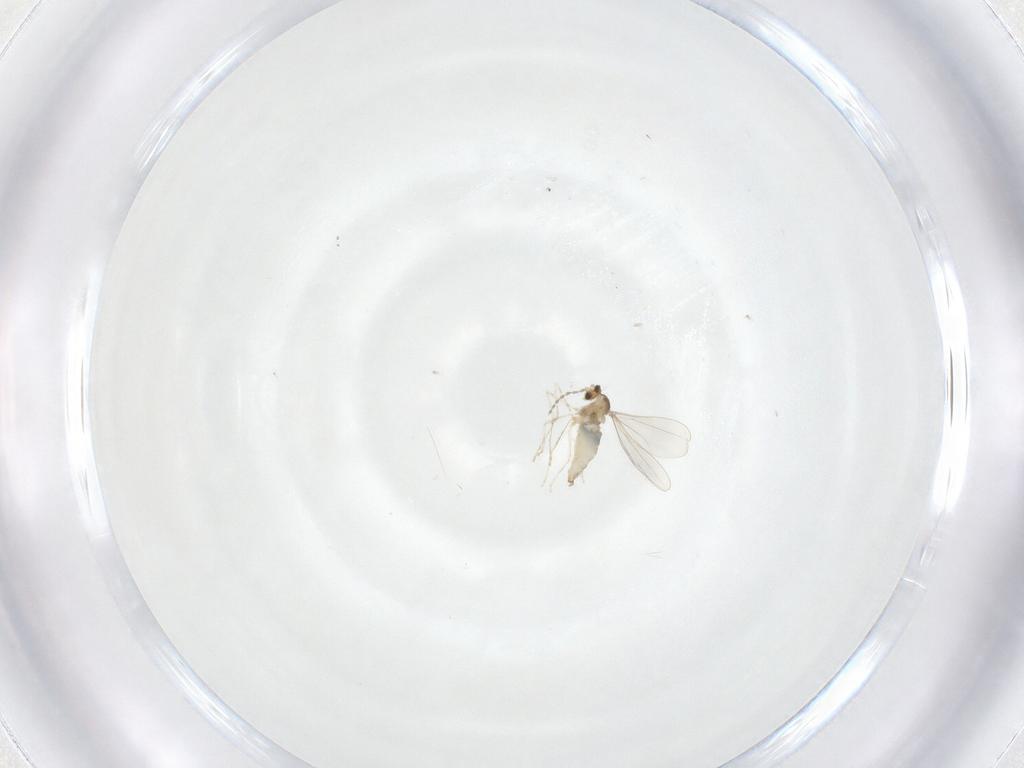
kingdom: Animalia
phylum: Arthropoda
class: Insecta
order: Diptera
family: Cecidomyiidae
